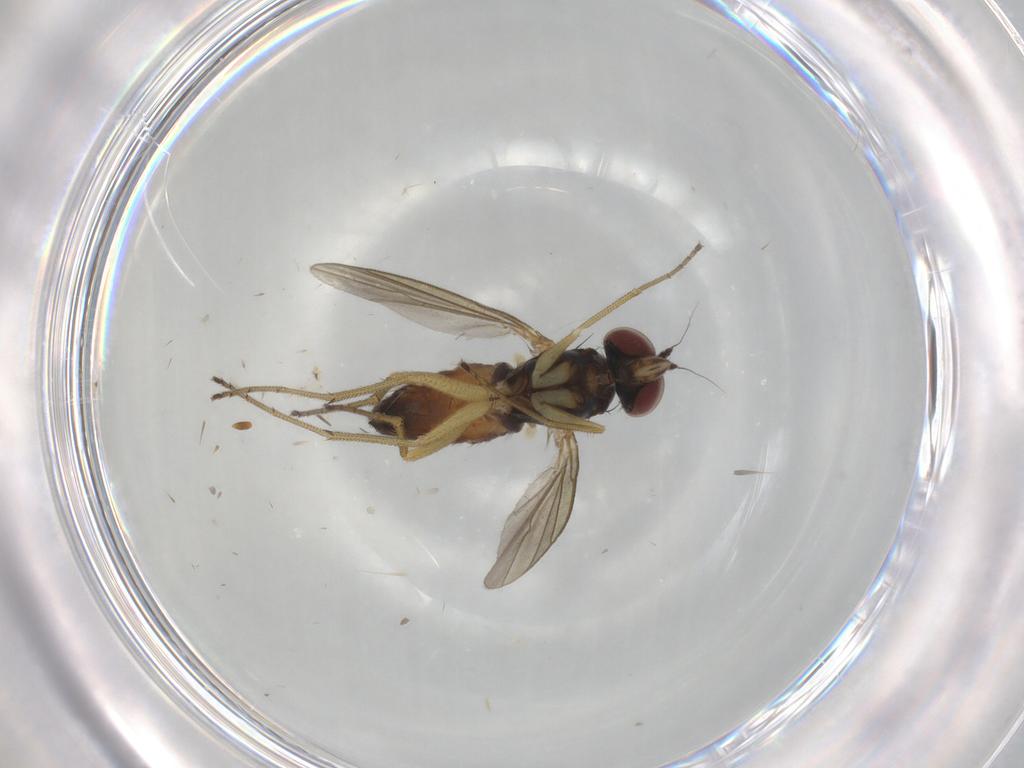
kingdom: Animalia
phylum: Arthropoda
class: Insecta
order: Diptera
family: Dolichopodidae
